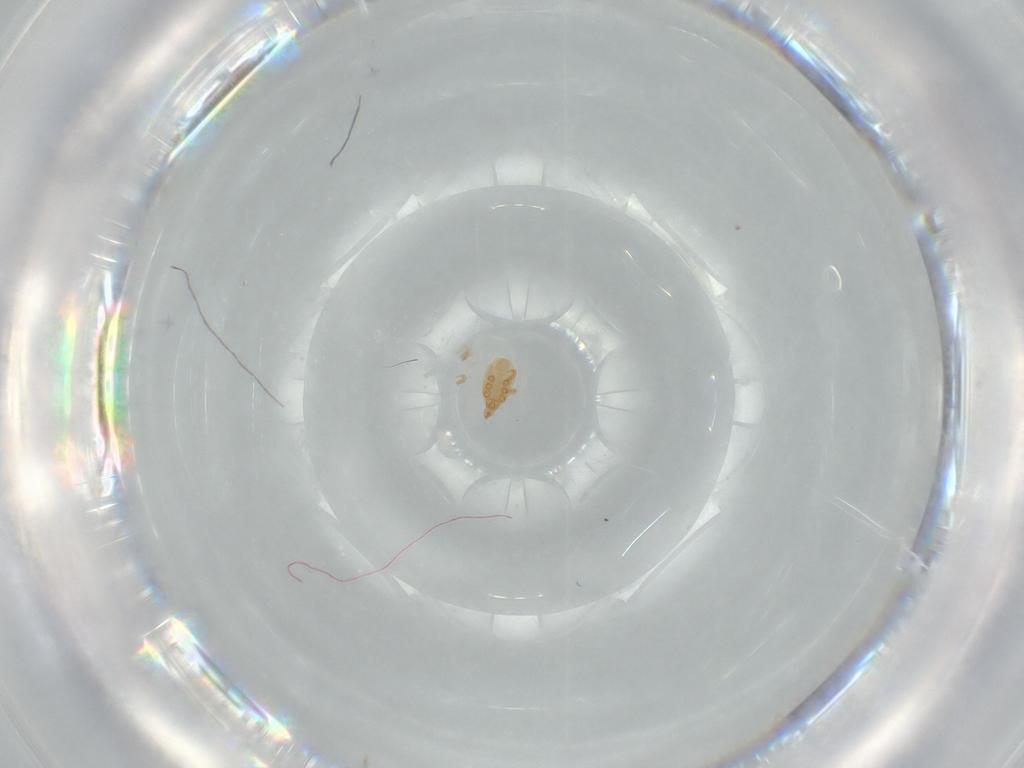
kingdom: Animalia
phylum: Arthropoda
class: Arachnida
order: Mesostigmata
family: Dinychidae
